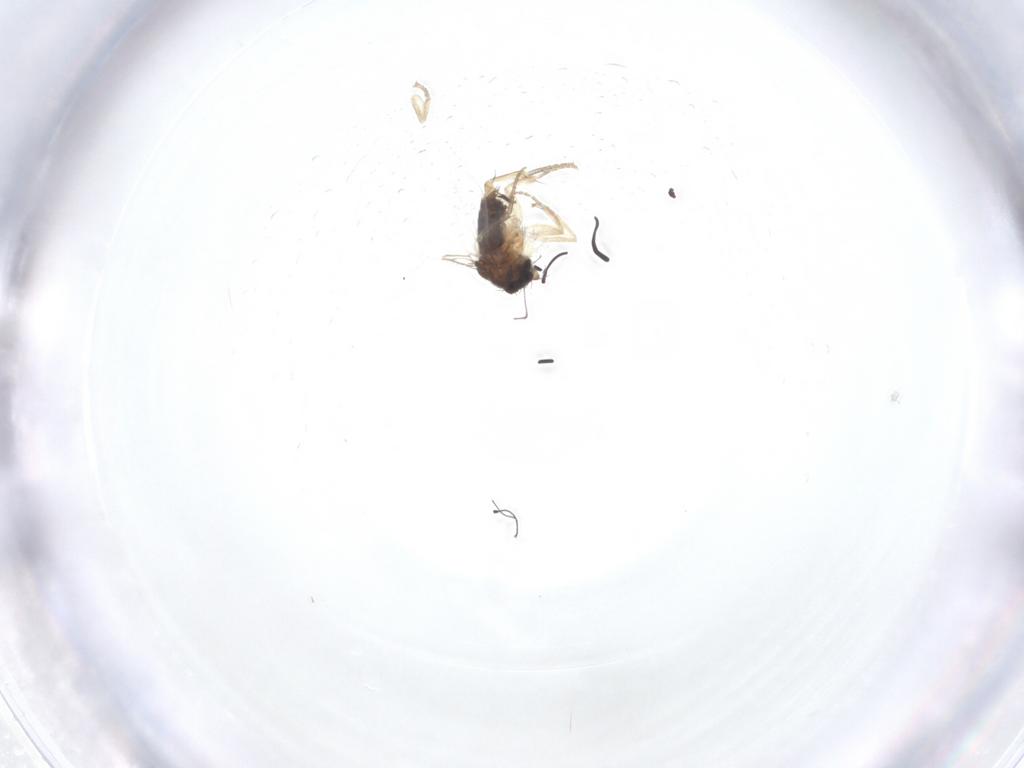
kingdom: Animalia
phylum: Arthropoda
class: Insecta
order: Diptera
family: Phoridae
